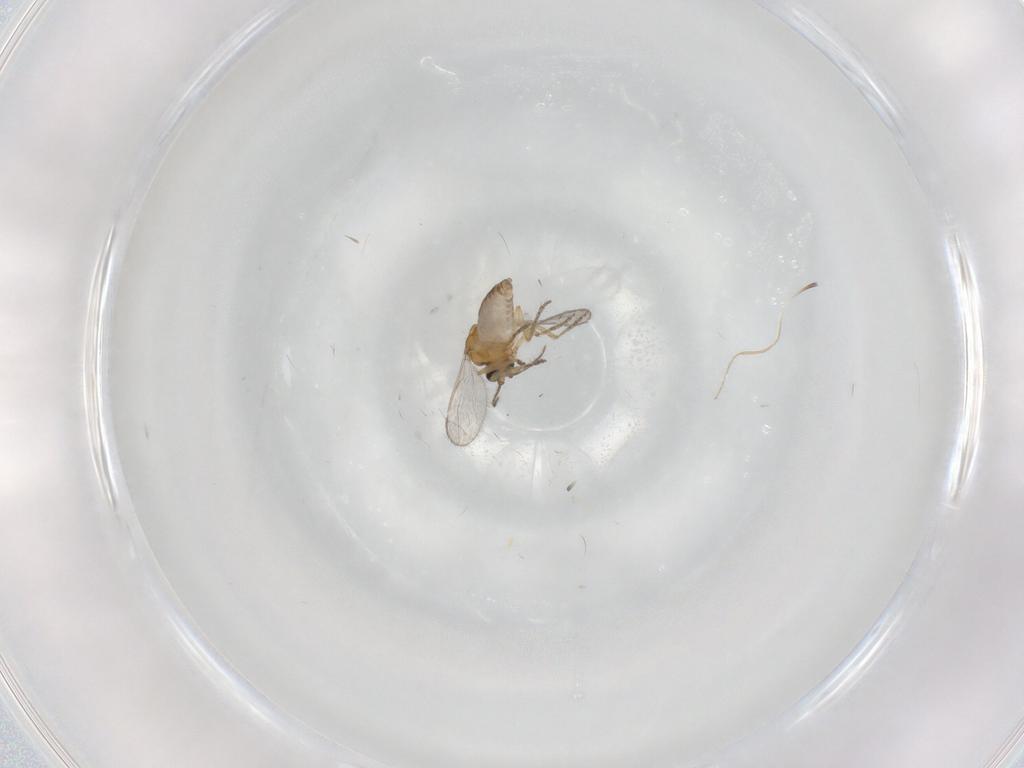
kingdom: Animalia
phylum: Arthropoda
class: Insecta
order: Diptera
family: Ceratopogonidae
